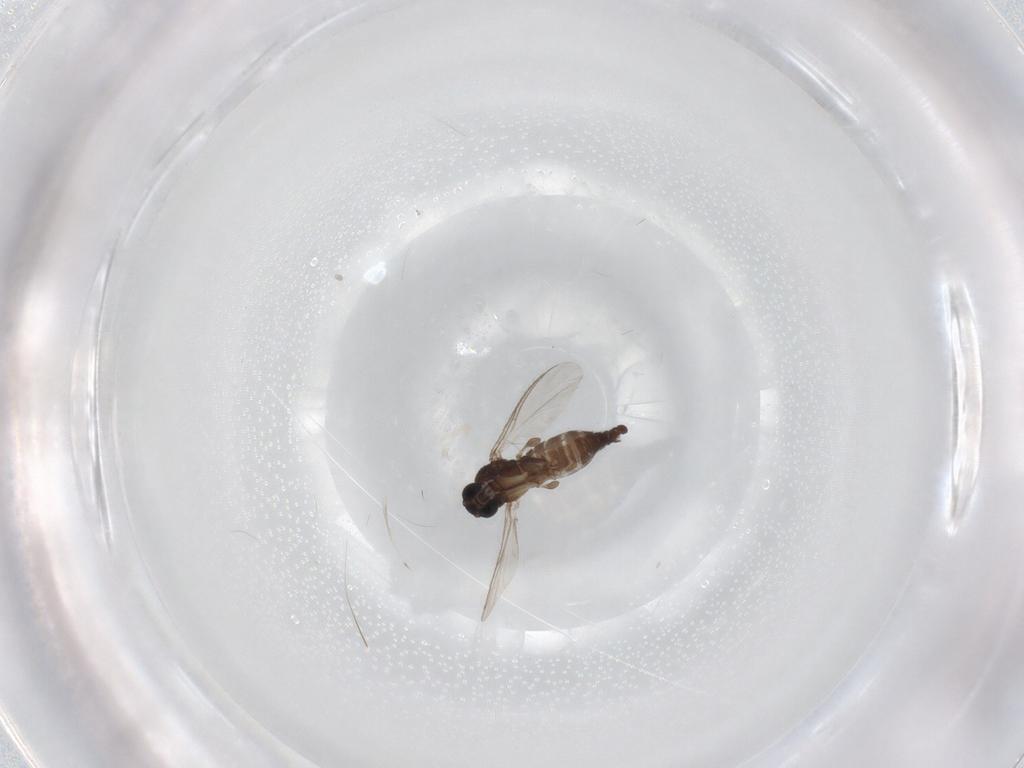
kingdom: Animalia
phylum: Arthropoda
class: Insecta
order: Diptera
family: Sciaridae
